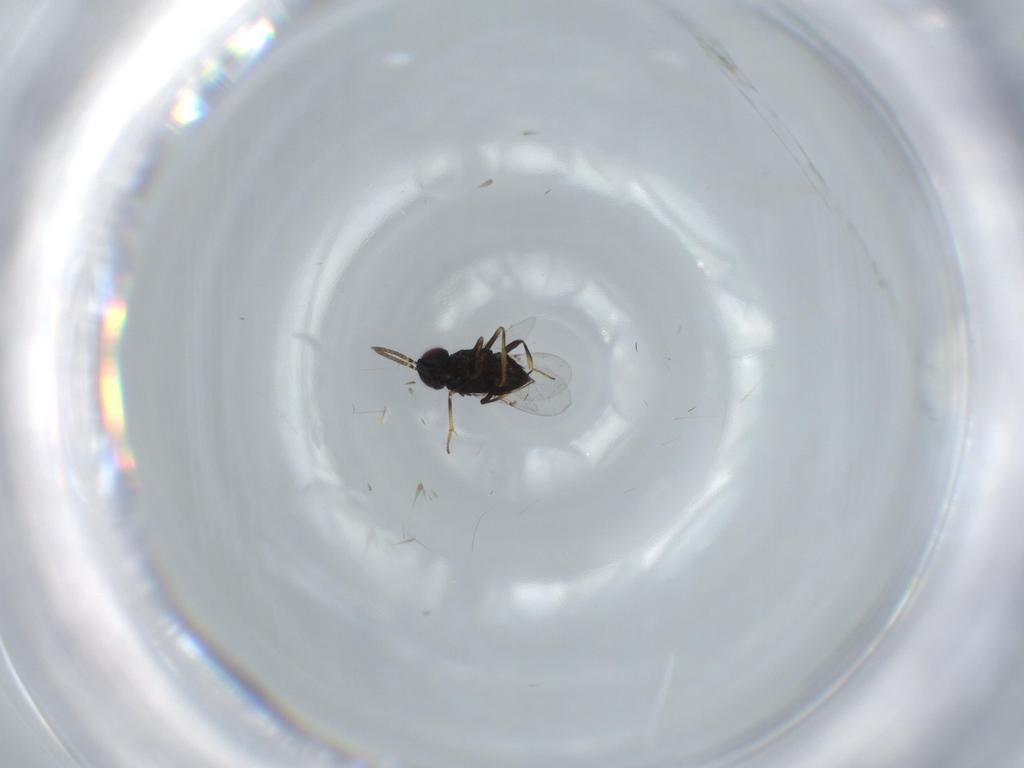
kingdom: Animalia
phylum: Arthropoda
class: Insecta
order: Hymenoptera
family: Encyrtidae
